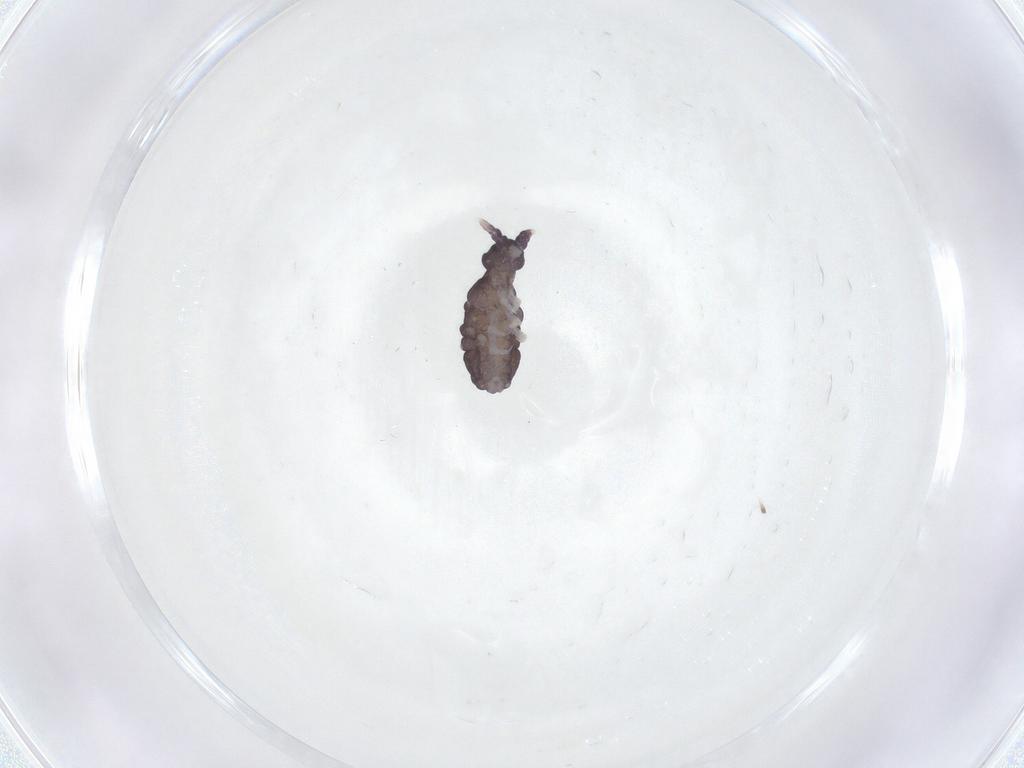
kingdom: Animalia
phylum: Arthropoda
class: Collembola
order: Poduromorpha
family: Neanuridae
